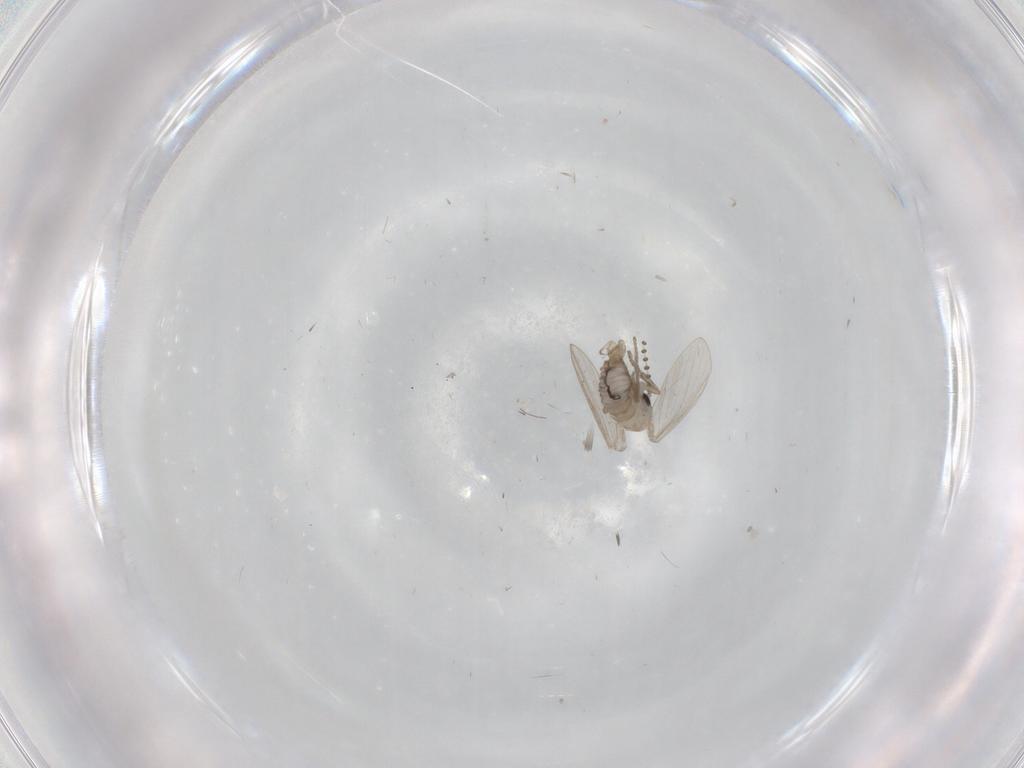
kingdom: Animalia
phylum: Arthropoda
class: Insecta
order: Diptera
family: Psychodidae
